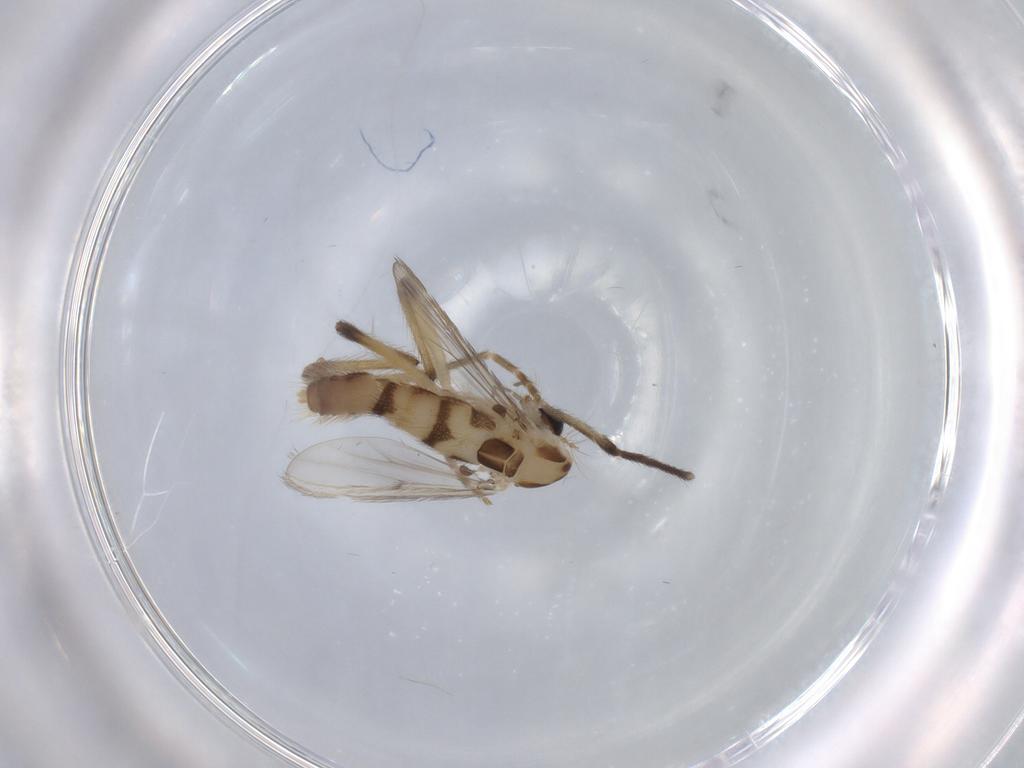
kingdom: Animalia
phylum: Arthropoda
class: Insecta
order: Diptera
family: Chironomidae
